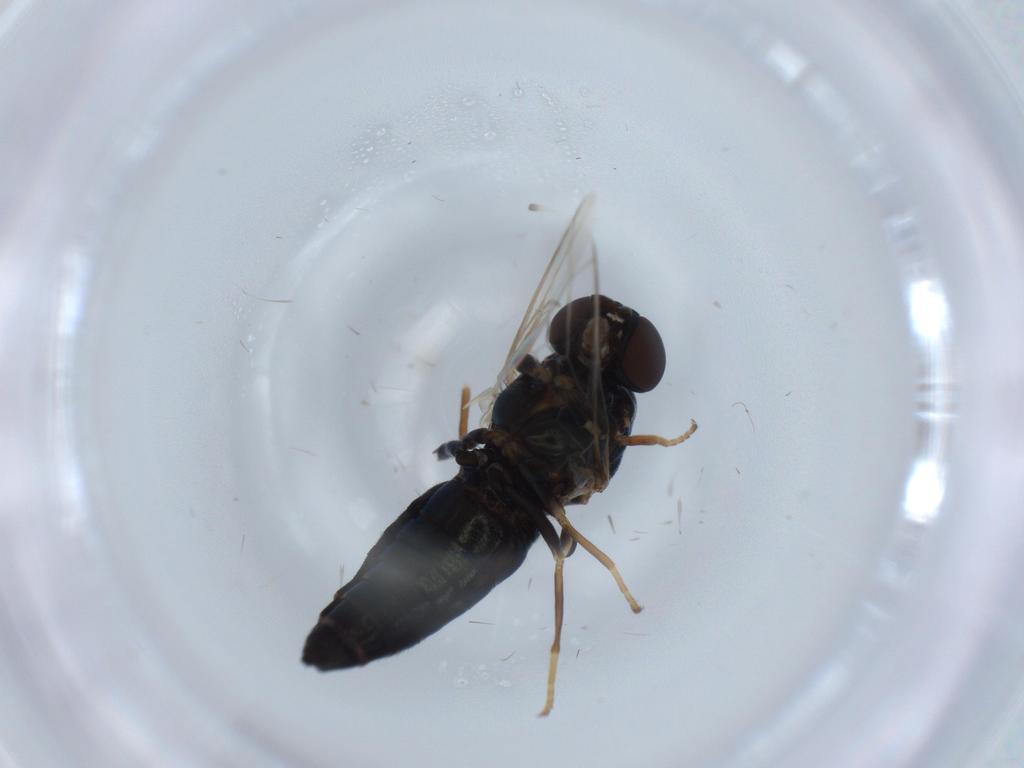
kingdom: Animalia
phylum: Arthropoda
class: Insecta
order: Diptera
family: Scenopinidae
